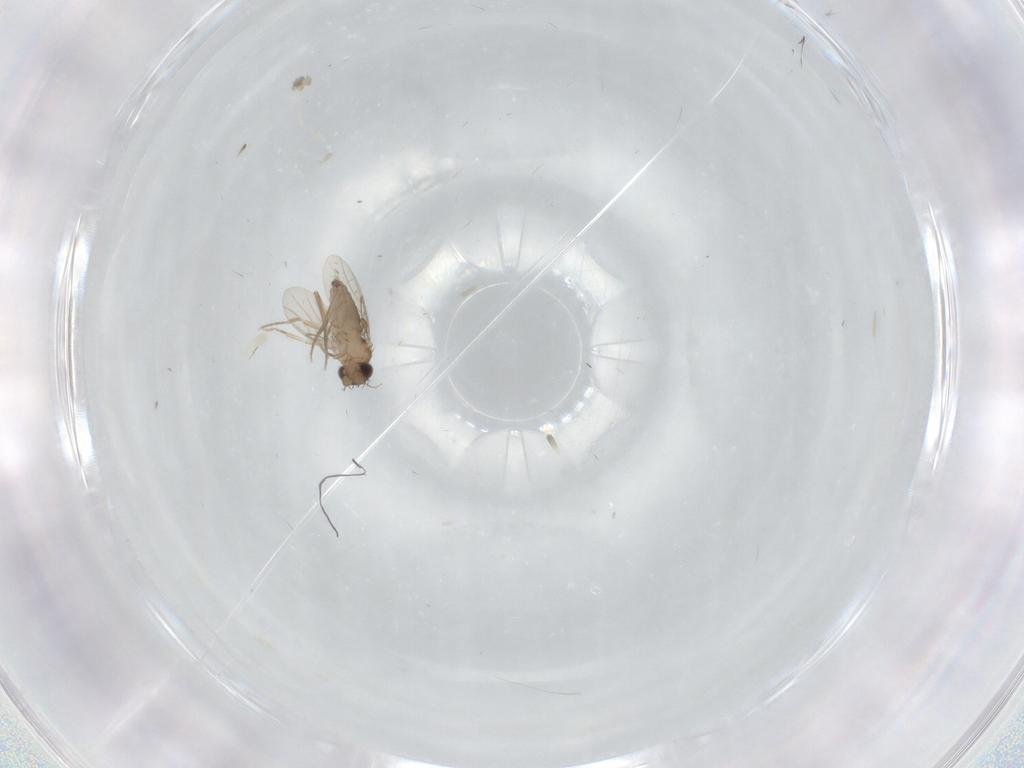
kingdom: Animalia
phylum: Arthropoda
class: Insecta
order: Diptera
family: Phoridae
